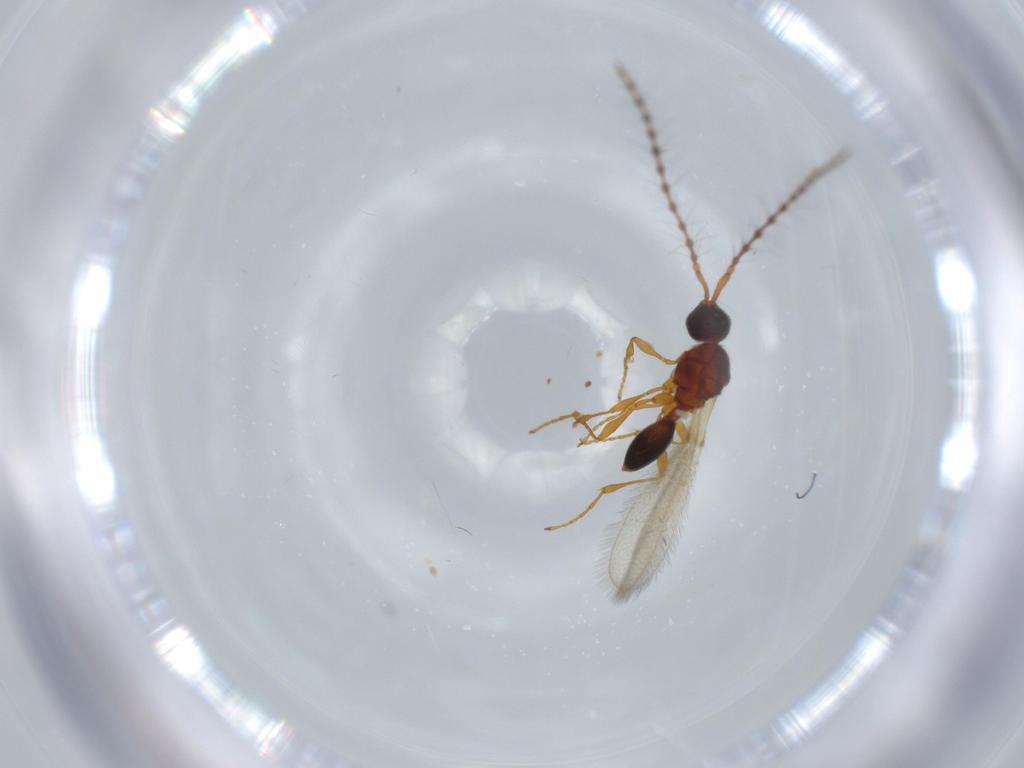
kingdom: Animalia
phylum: Arthropoda
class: Insecta
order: Hymenoptera
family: Diapriidae
